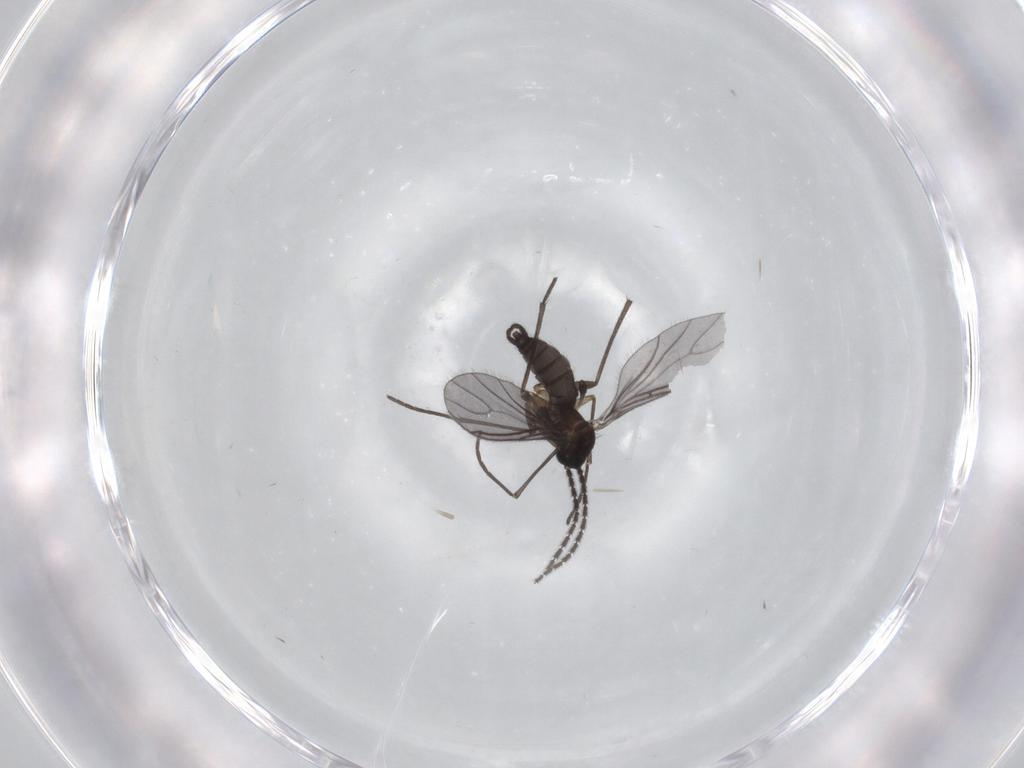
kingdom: Animalia
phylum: Arthropoda
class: Insecta
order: Diptera
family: Sciaridae
